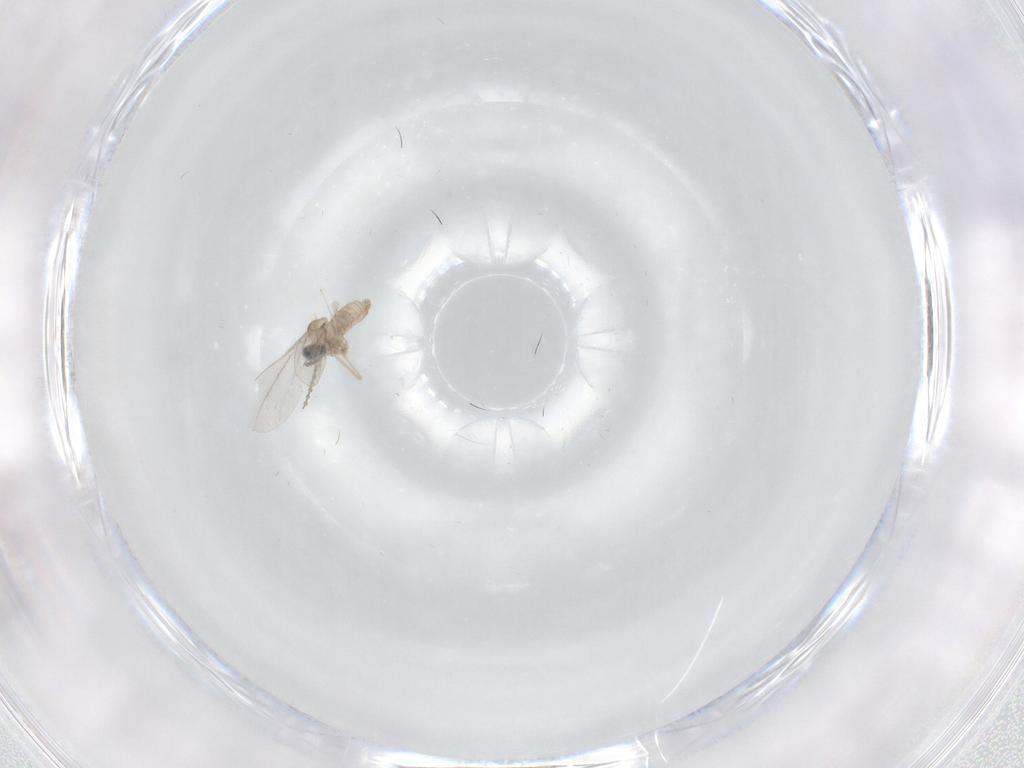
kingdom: Animalia
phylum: Arthropoda
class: Insecta
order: Diptera
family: Cecidomyiidae
